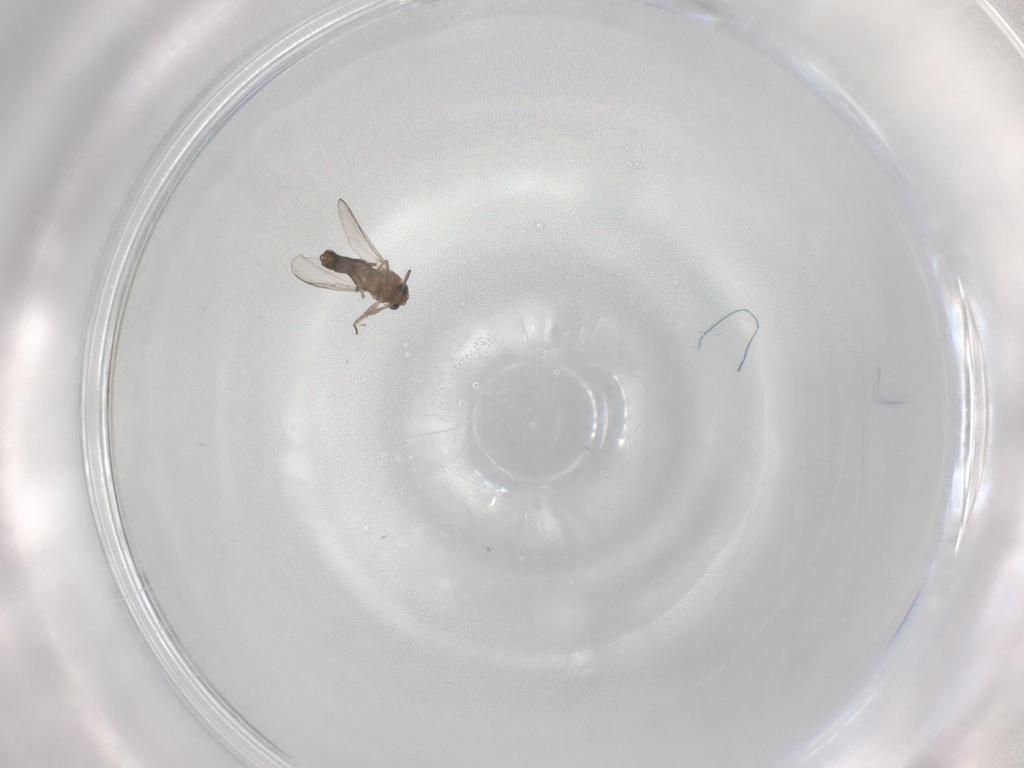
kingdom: Animalia
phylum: Arthropoda
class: Insecta
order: Diptera
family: Chironomidae
